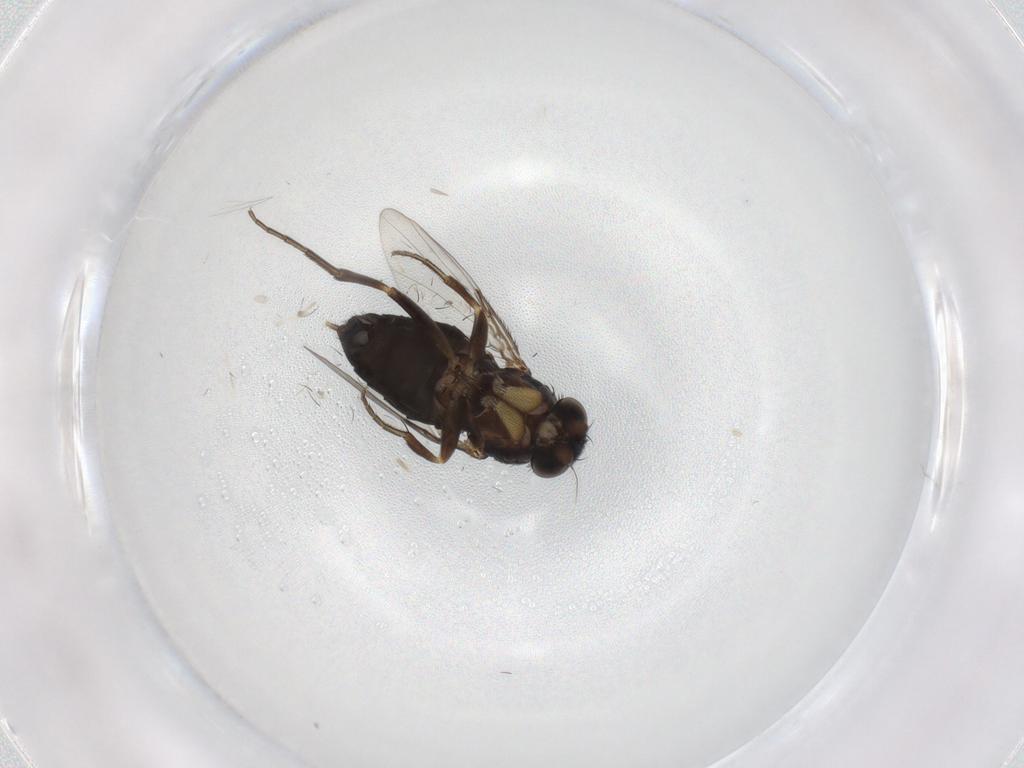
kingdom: Animalia
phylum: Arthropoda
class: Insecta
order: Diptera
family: Phoridae
